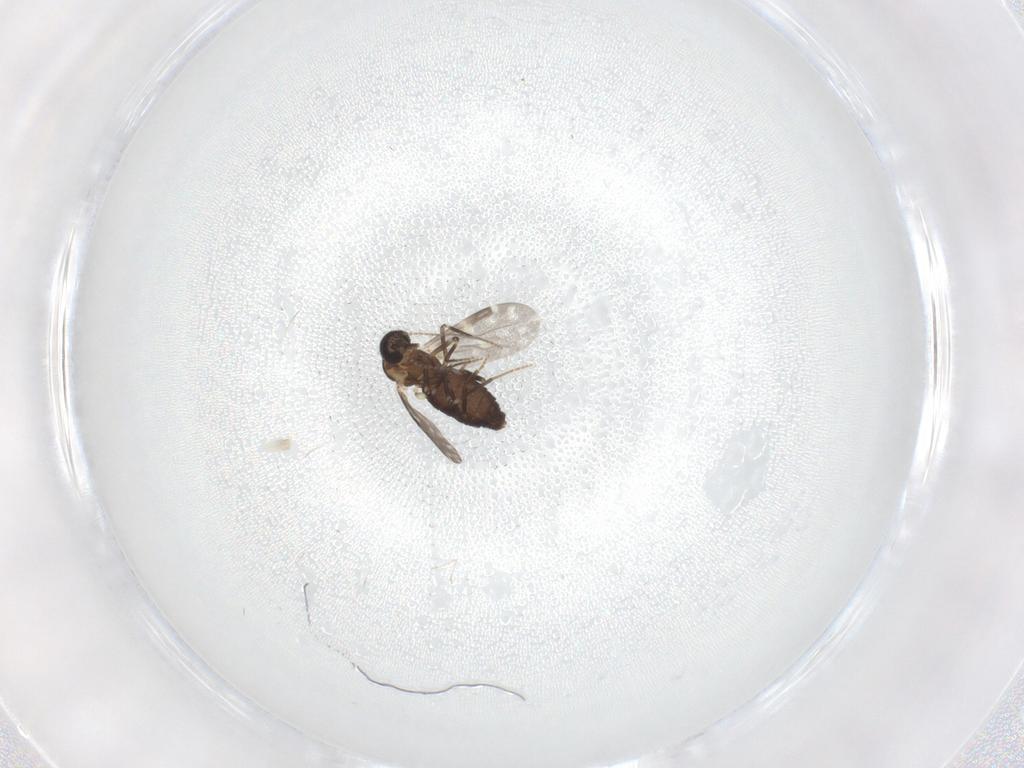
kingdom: Animalia
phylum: Arthropoda
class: Insecta
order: Diptera
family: Ceratopogonidae
